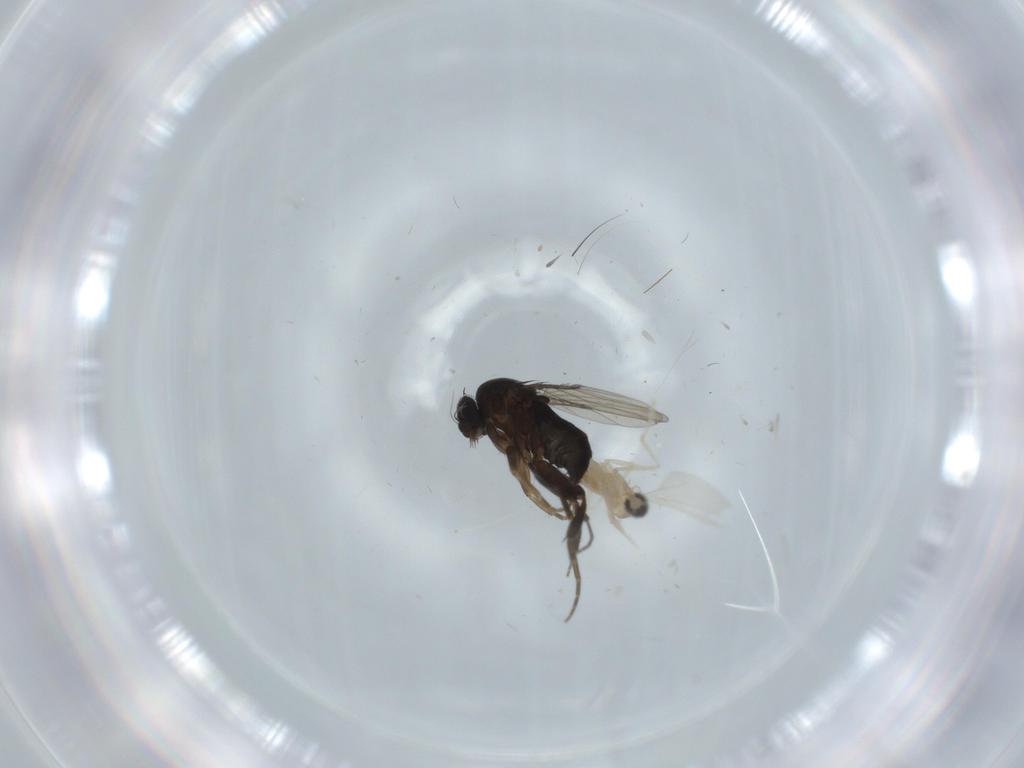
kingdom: Animalia
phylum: Arthropoda
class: Insecta
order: Diptera
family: Cecidomyiidae
